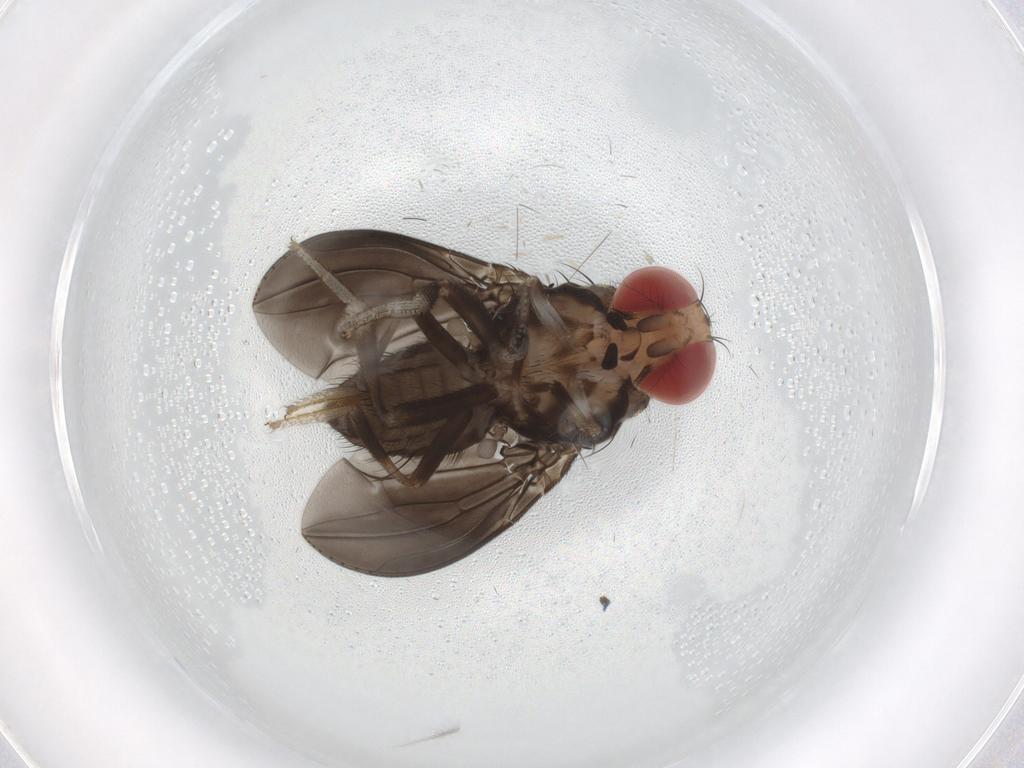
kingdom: Animalia
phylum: Arthropoda
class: Insecta
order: Diptera
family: Drosophilidae
